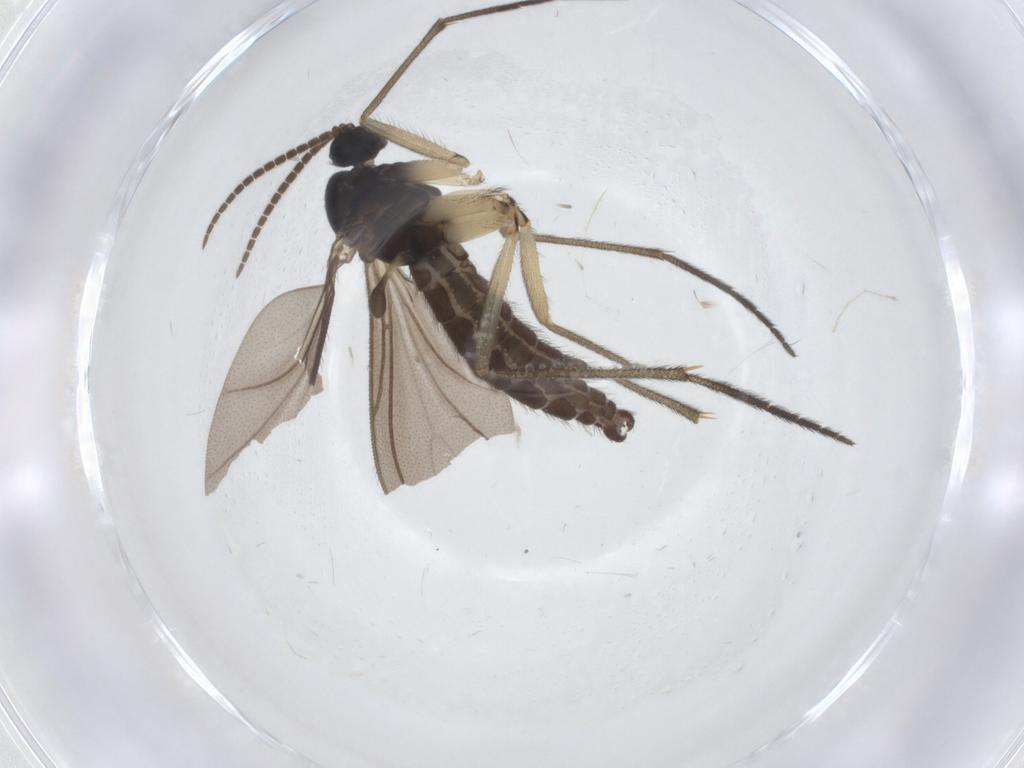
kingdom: Animalia
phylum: Arthropoda
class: Insecta
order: Diptera
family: Sciaridae
